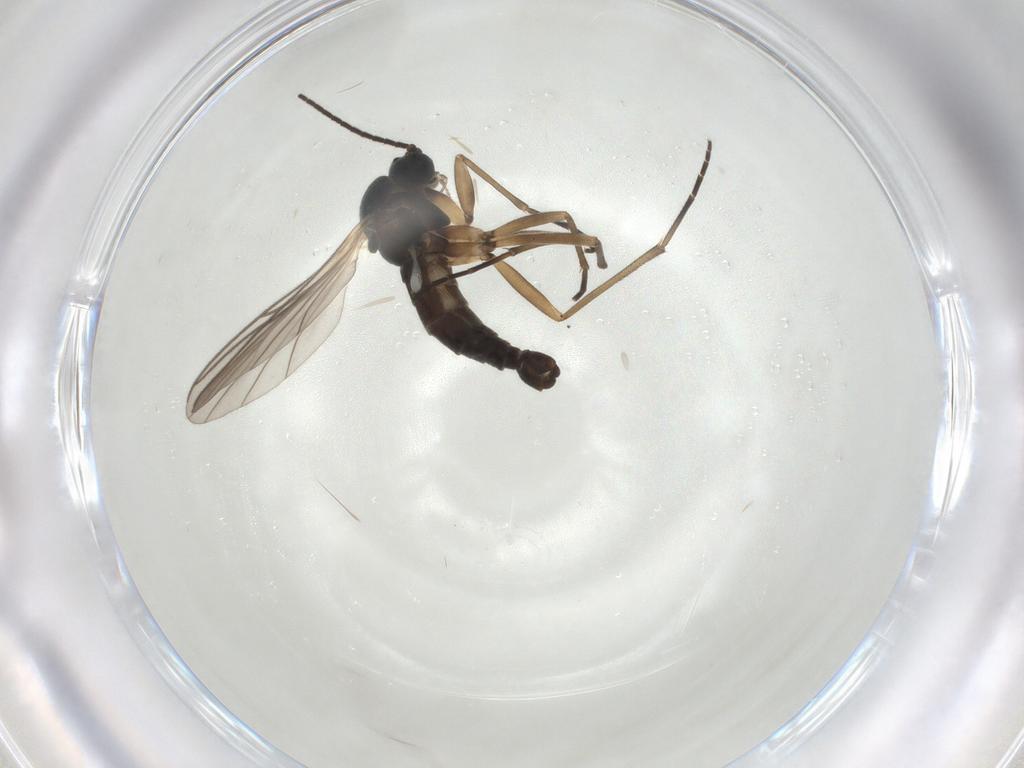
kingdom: Animalia
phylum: Arthropoda
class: Insecta
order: Diptera
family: Sciaridae
